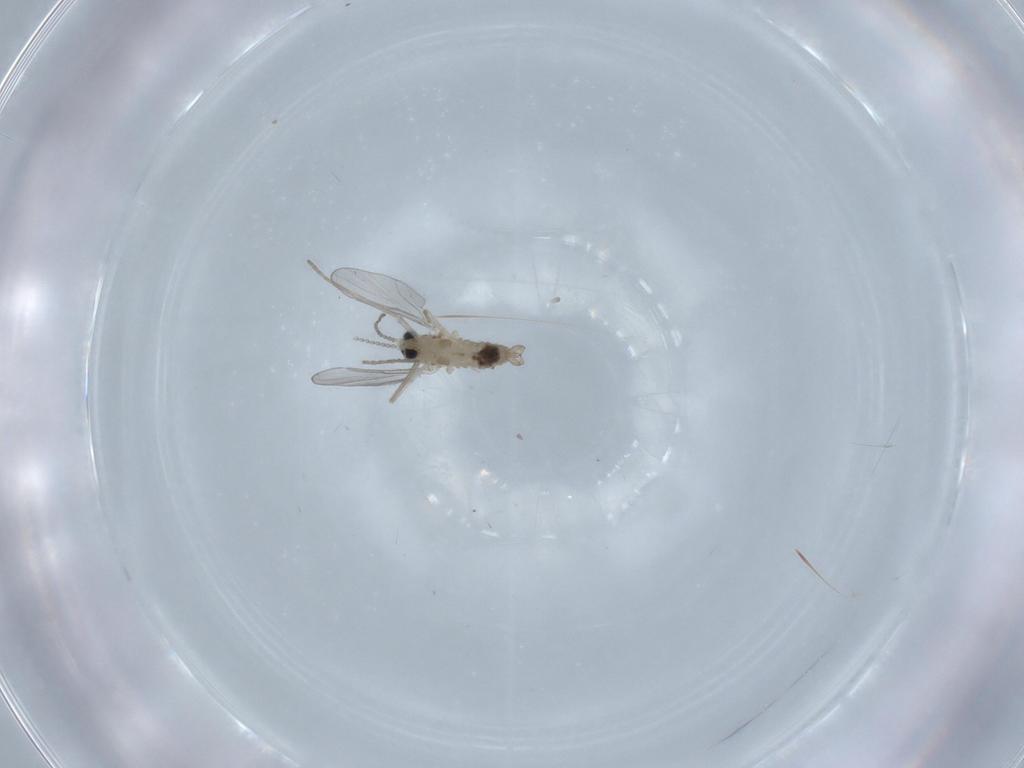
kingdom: Animalia
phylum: Arthropoda
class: Insecta
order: Diptera
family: Cecidomyiidae
